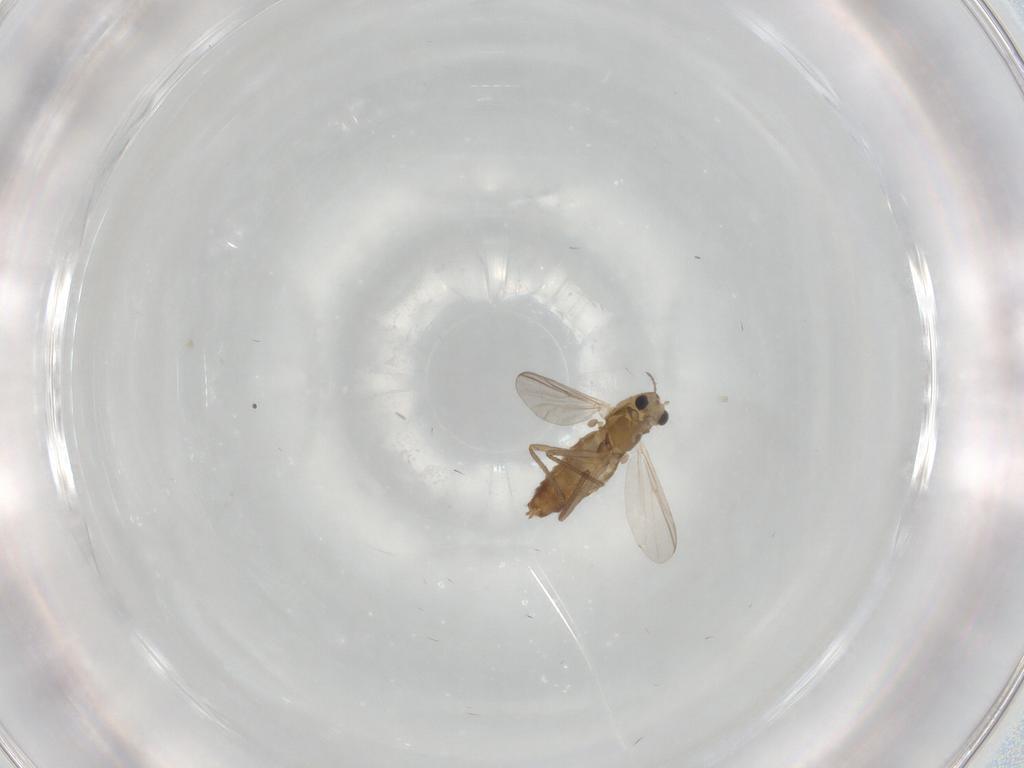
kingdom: Animalia
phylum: Arthropoda
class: Insecta
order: Diptera
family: Chironomidae
